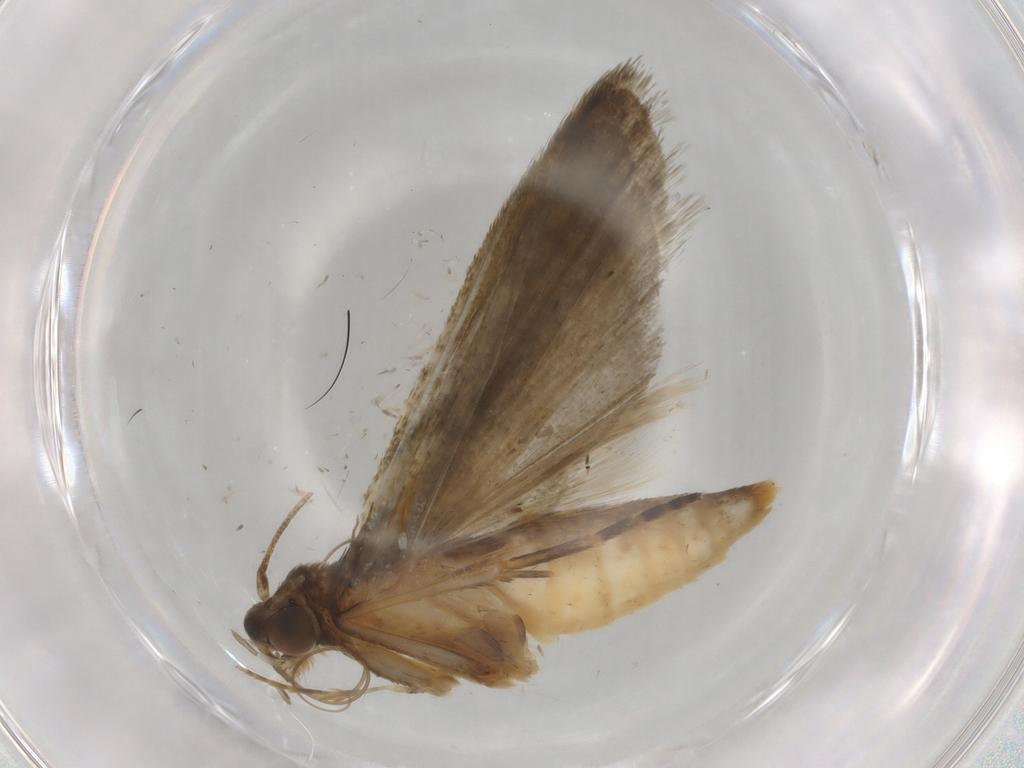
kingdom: Animalia
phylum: Arthropoda
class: Insecta
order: Lepidoptera
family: Noctuidae
